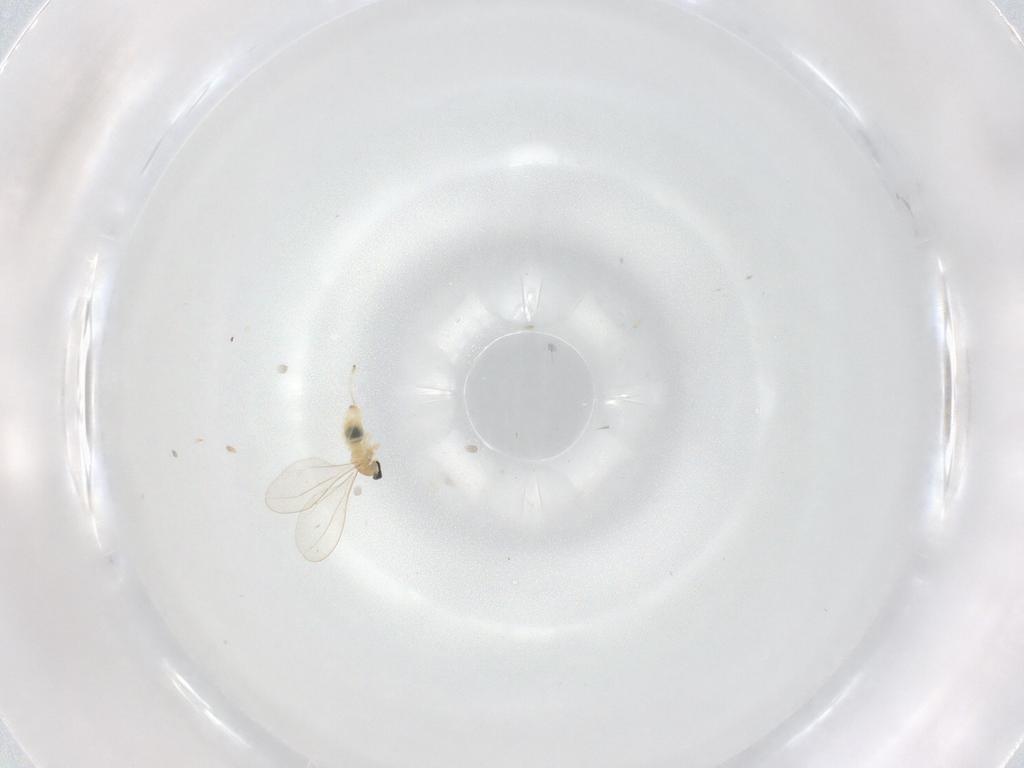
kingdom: Animalia
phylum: Arthropoda
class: Insecta
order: Diptera
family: Cecidomyiidae
